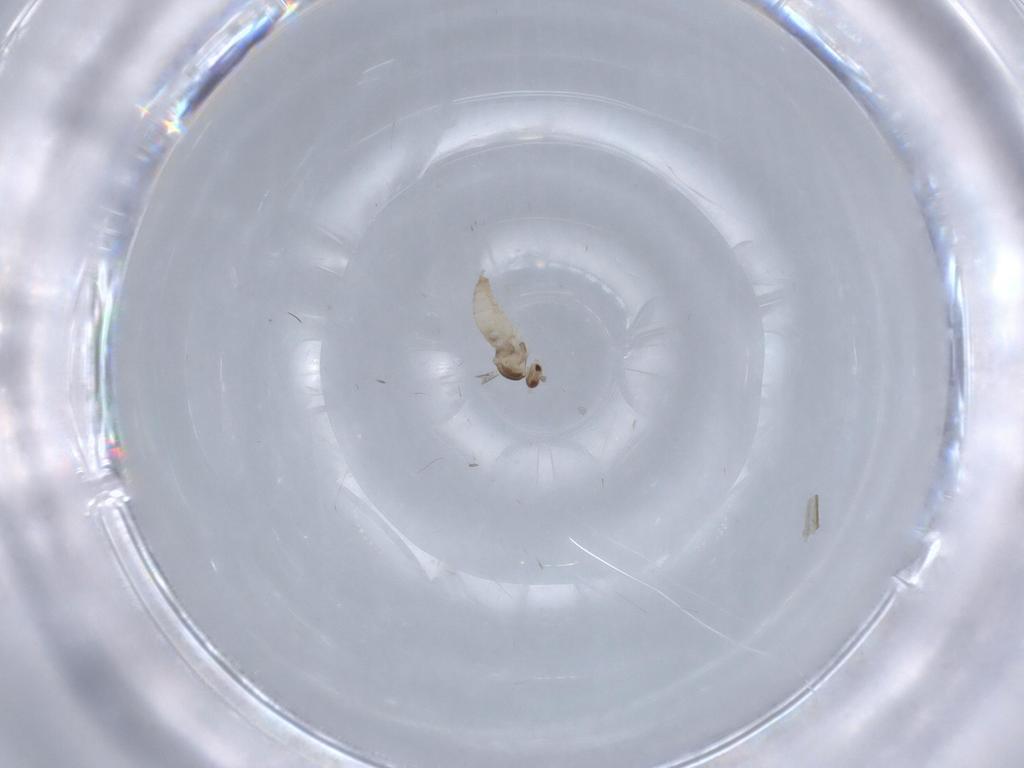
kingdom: Animalia
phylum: Arthropoda
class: Insecta
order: Diptera
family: Cecidomyiidae
